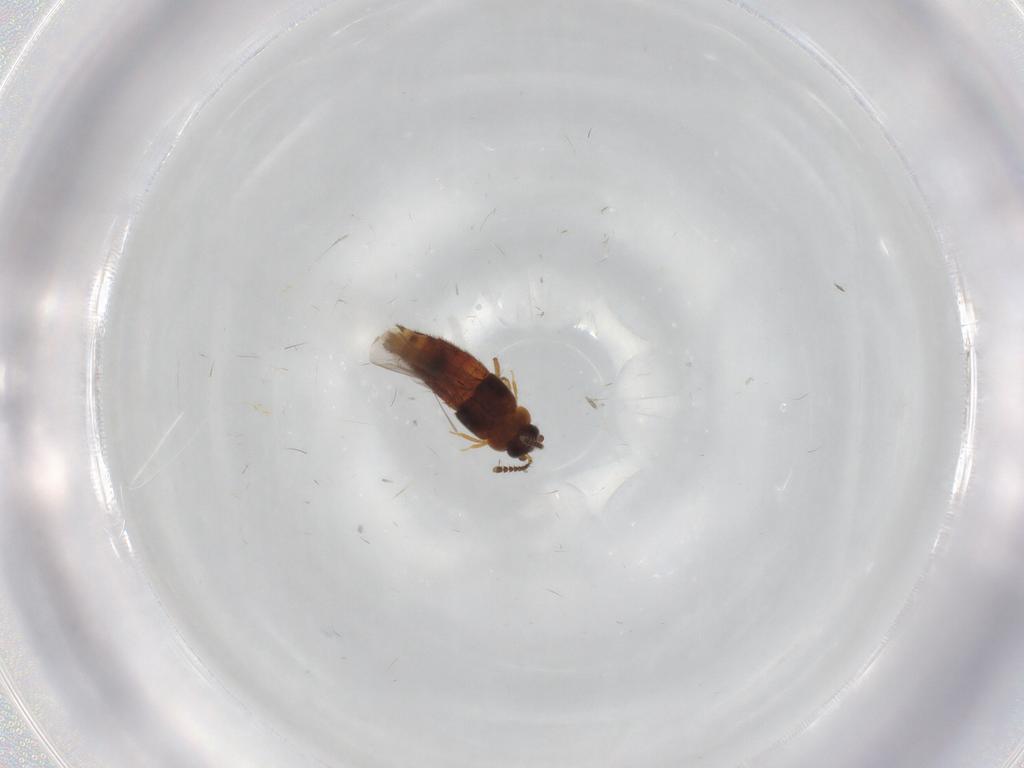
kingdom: Animalia
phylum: Arthropoda
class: Insecta
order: Coleoptera
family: Staphylinidae
